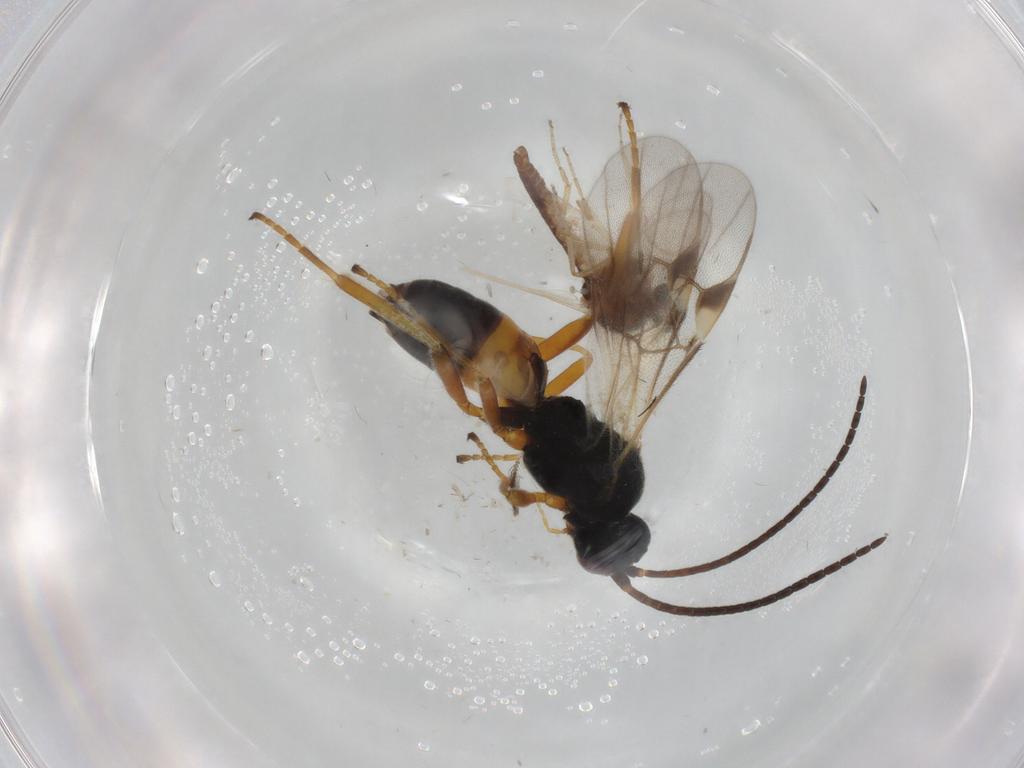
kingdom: Animalia
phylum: Arthropoda
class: Insecta
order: Hymenoptera
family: Braconidae
